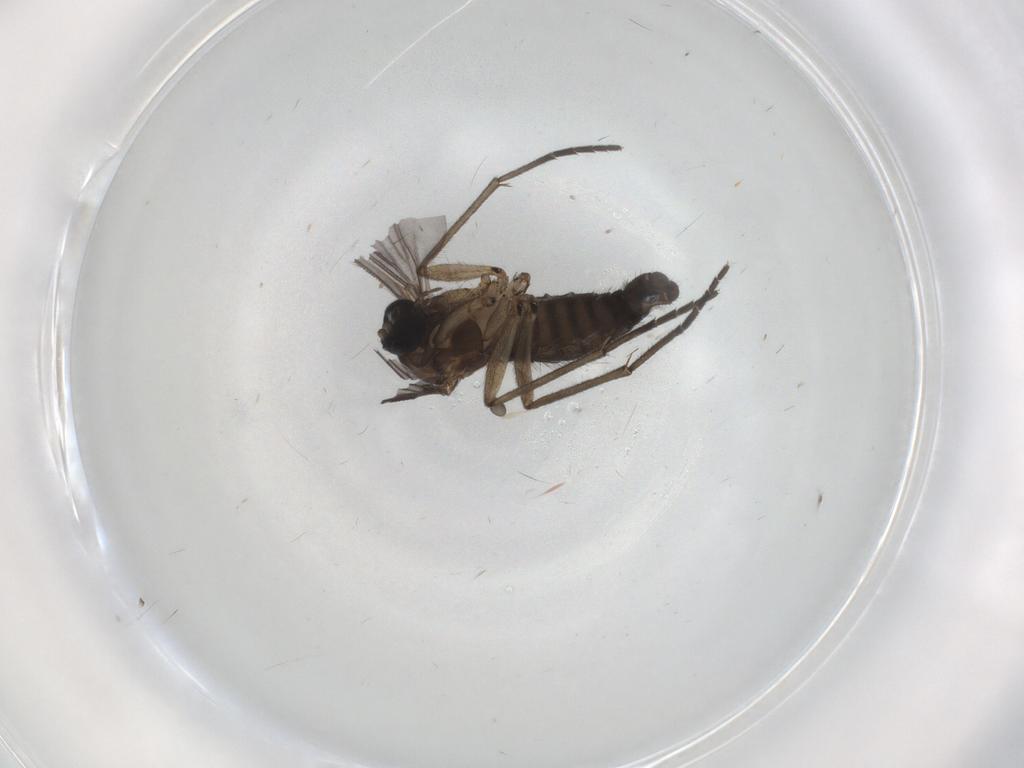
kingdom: Animalia
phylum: Arthropoda
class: Insecta
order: Diptera
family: Sciaridae
